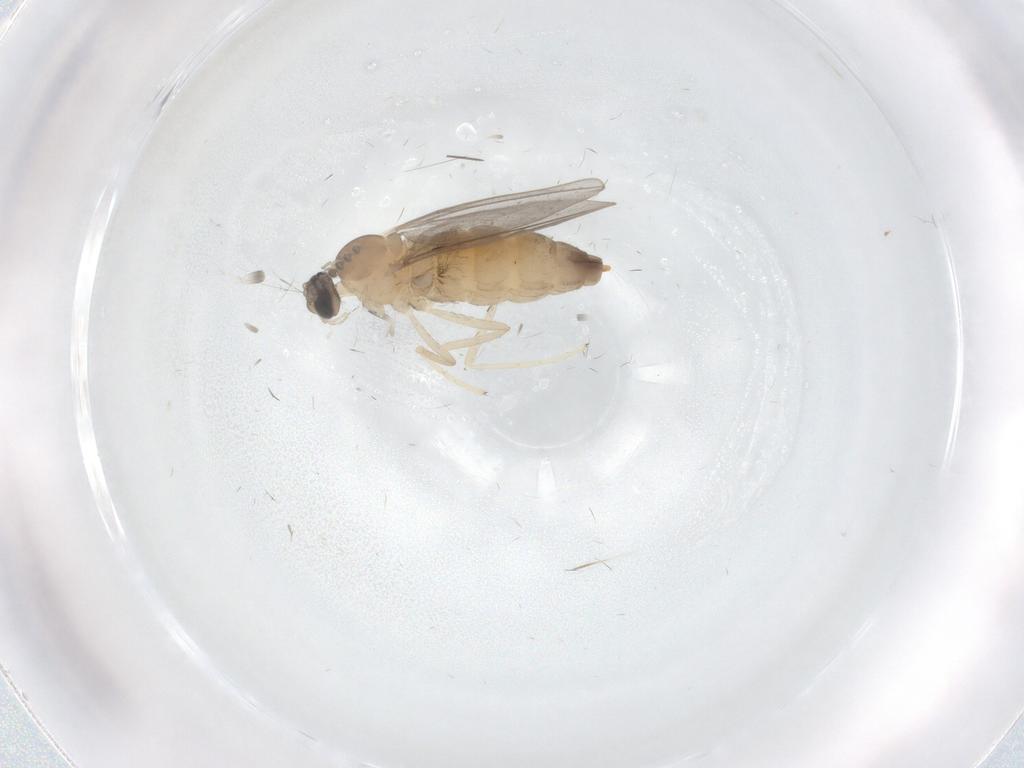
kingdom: Animalia
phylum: Arthropoda
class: Insecta
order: Diptera
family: Cecidomyiidae
